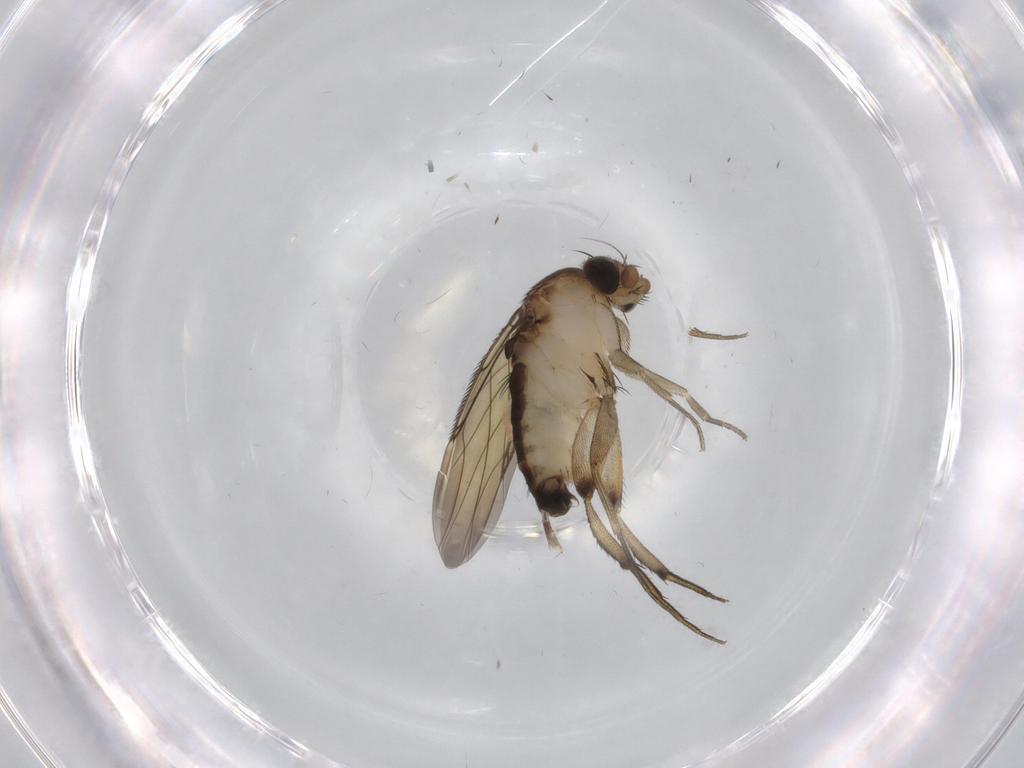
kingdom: Animalia
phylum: Arthropoda
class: Insecta
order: Diptera
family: Phoridae
